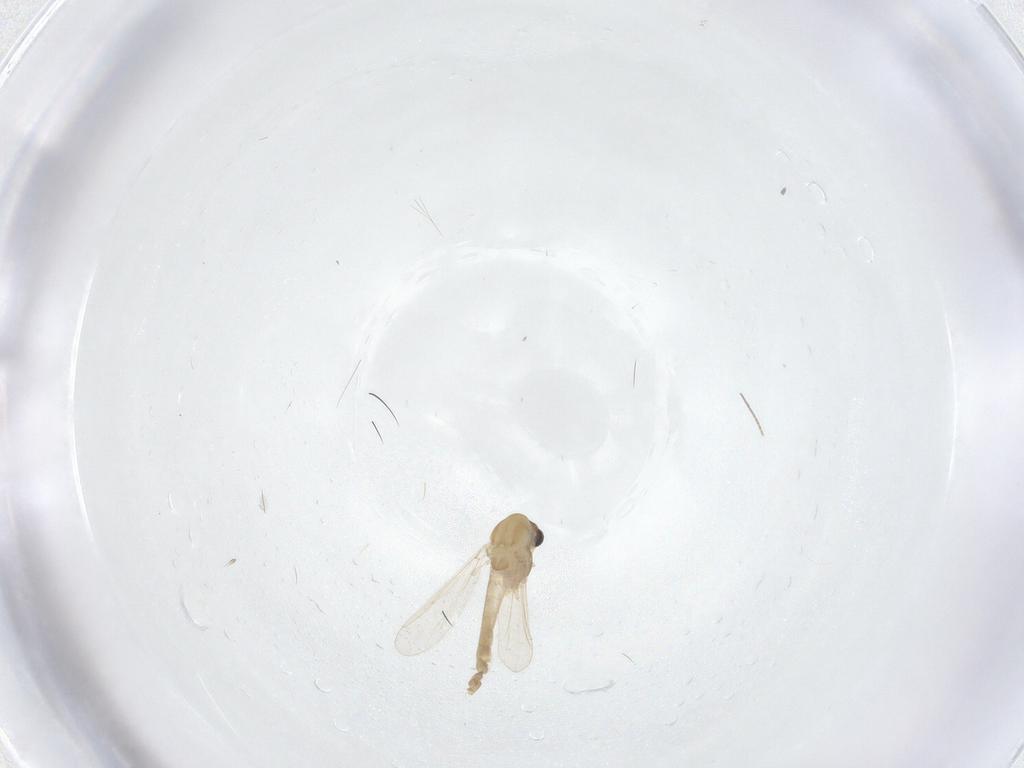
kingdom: Animalia
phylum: Arthropoda
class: Insecta
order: Diptera
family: Chironomidae
